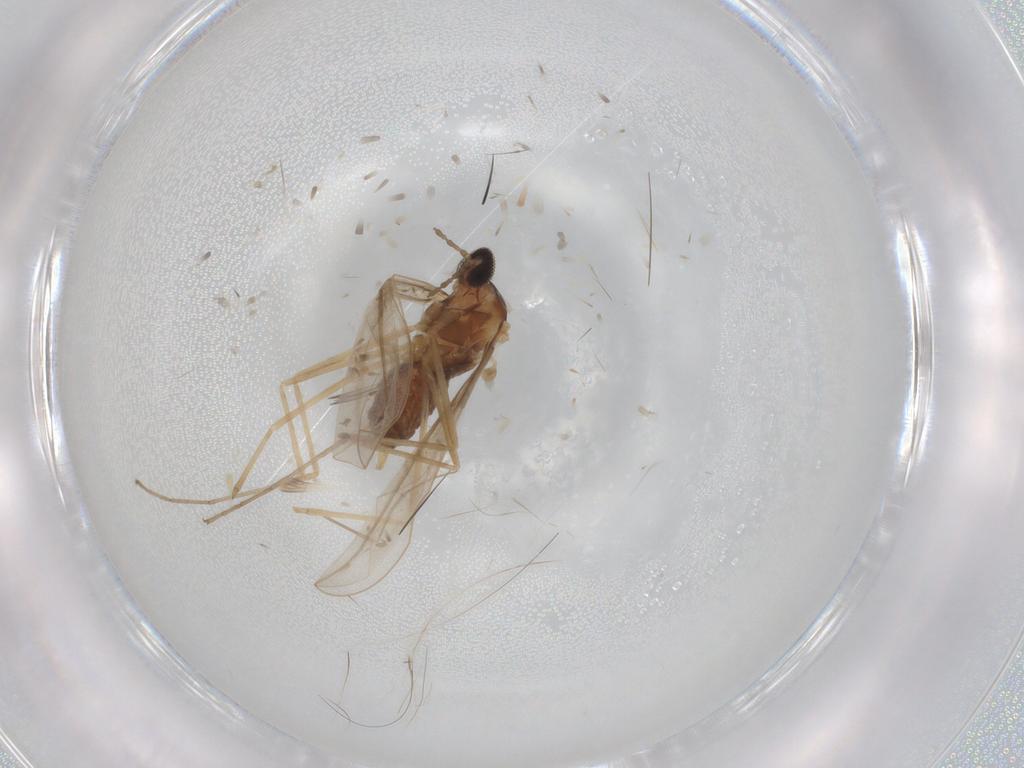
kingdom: Animalia
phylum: Arthropoda
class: Insecta
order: Diptera
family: Cecidomyiidae
